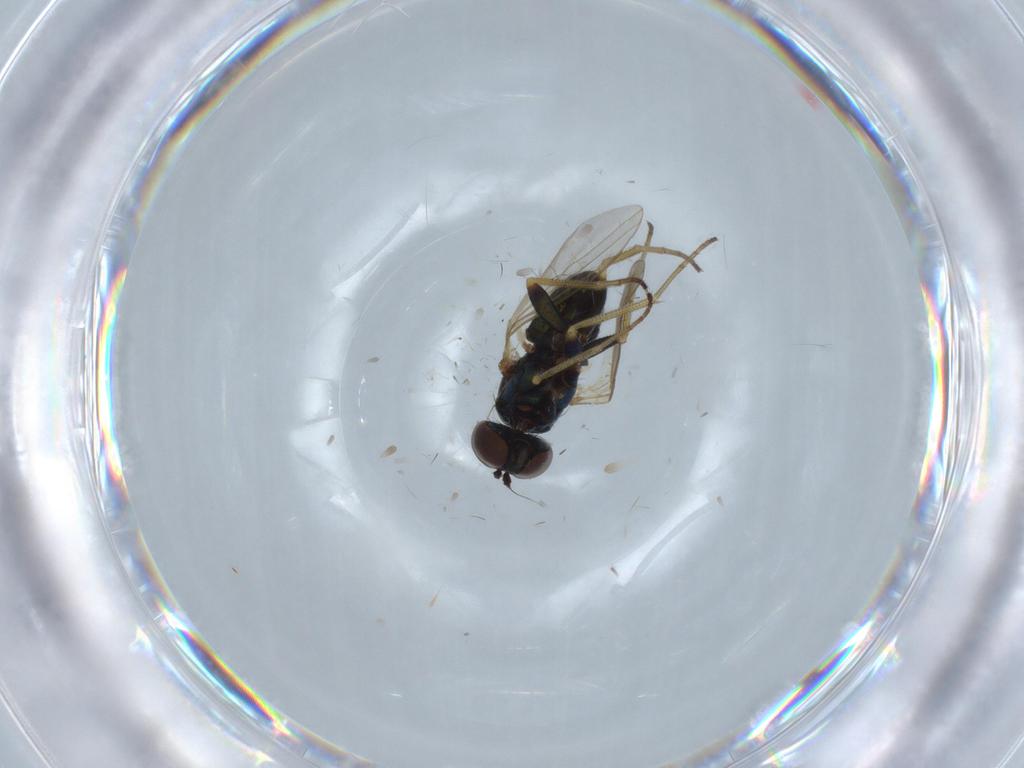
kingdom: Animalia
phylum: Arthropoda
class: Insecta
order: Diptera
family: Dolichopodidae
